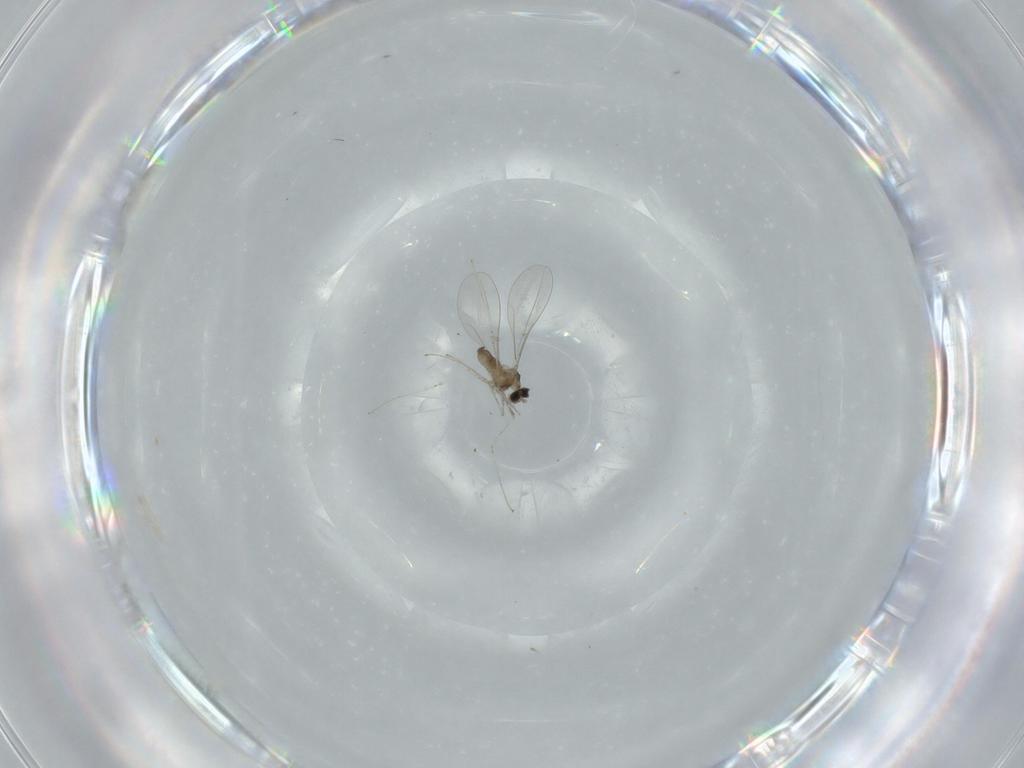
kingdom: Animalia
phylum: Arthropoda
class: Insecta
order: Diptera
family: Cecidomyiidae
